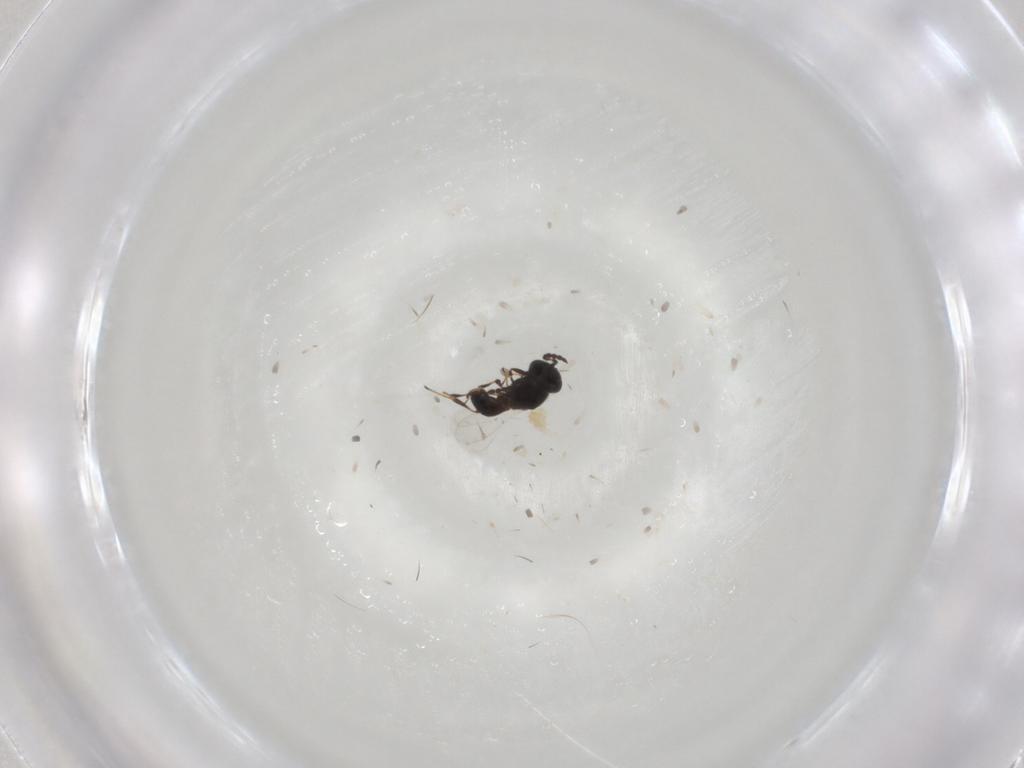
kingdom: Animalia
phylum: Arthropoda
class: Insecta
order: Hymenoptera
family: Platygastridae
